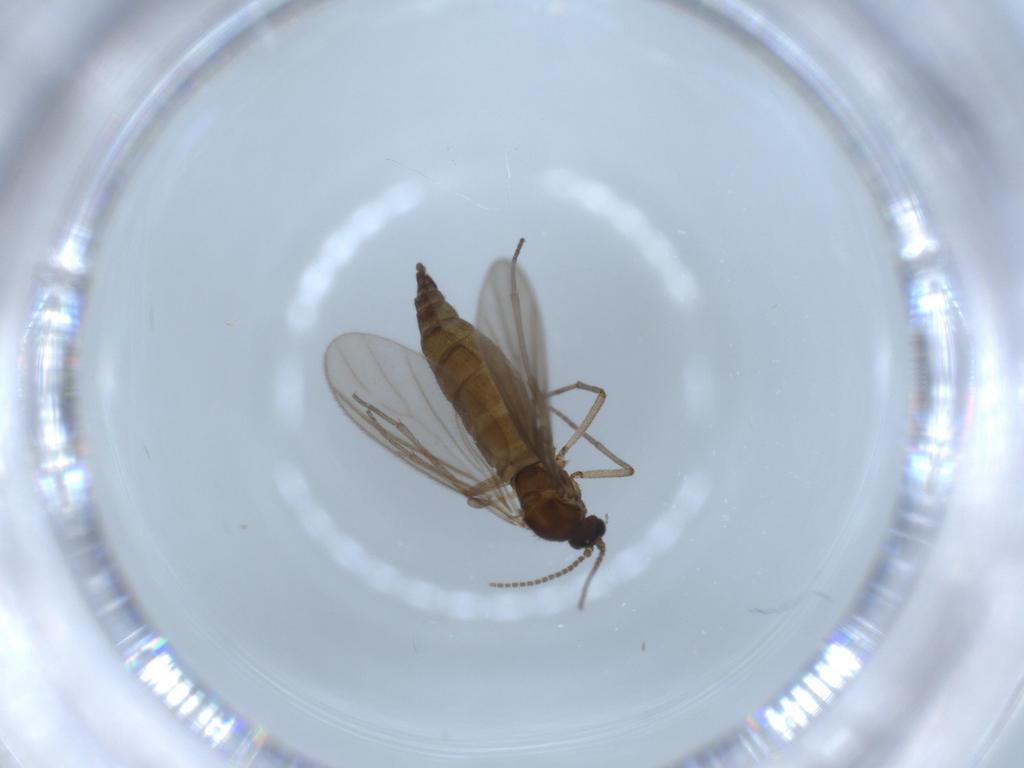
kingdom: Animalia
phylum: Arthropoda
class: Insecta
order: Diptera
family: Sciaridae
